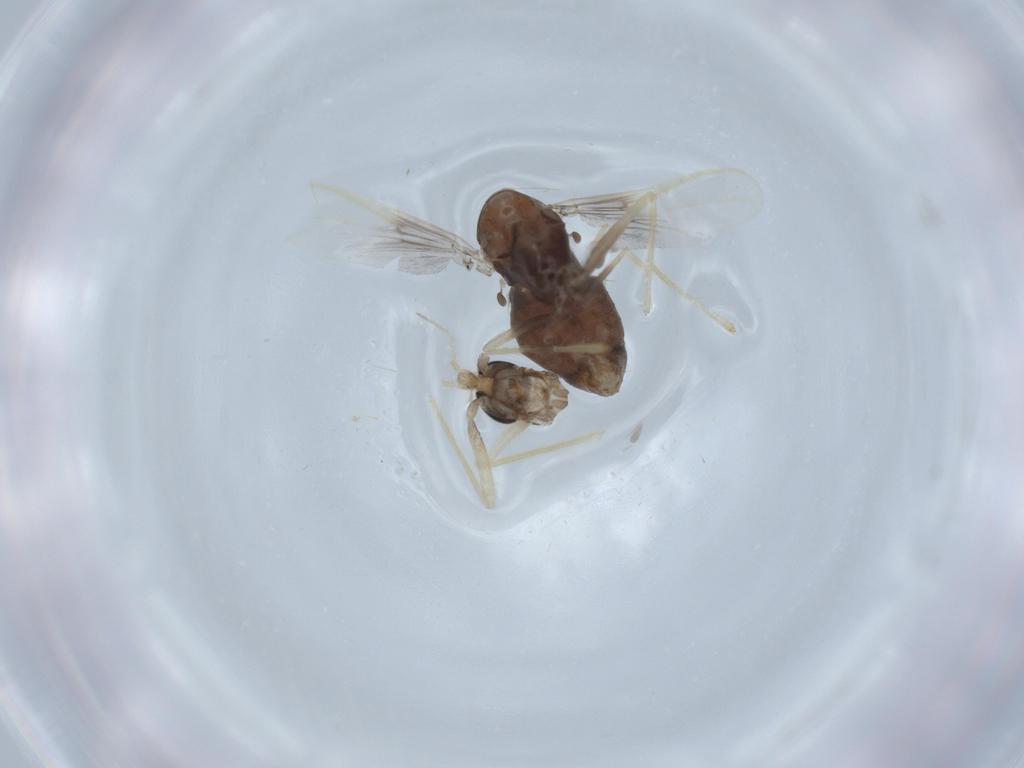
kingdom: Animalia
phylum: Arthropoda
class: Insecta
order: Diptera
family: Chironomidae
